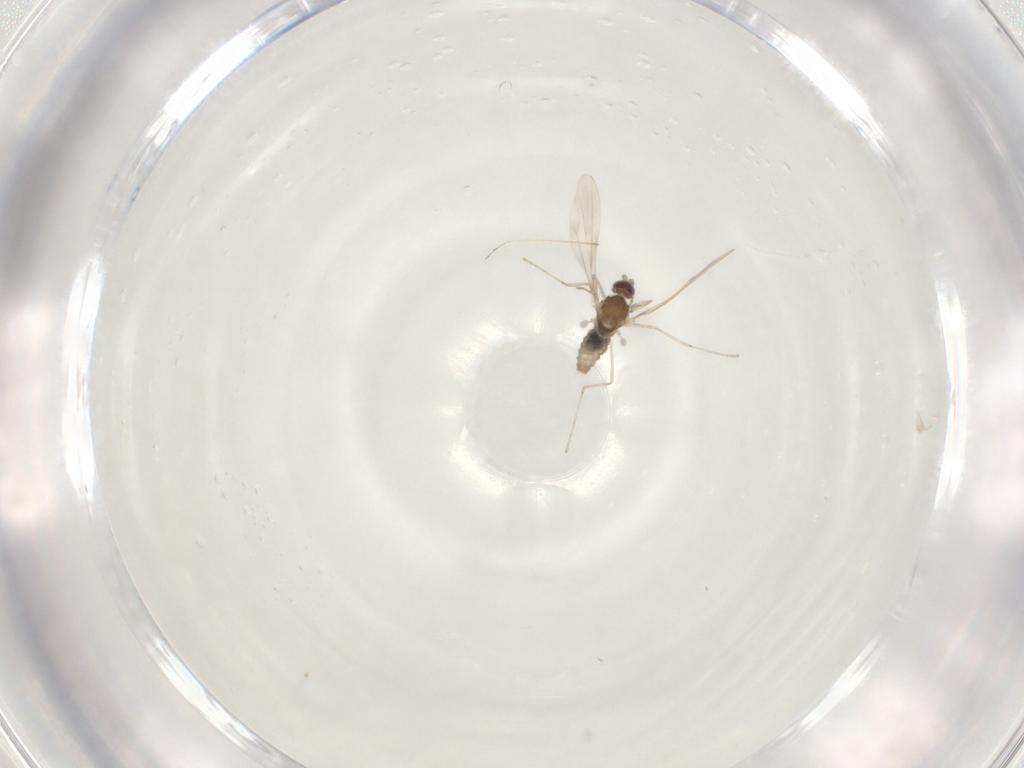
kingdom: Animalia
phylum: Arthropoda
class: Insecta
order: Diptera
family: Cecidomyiidae
